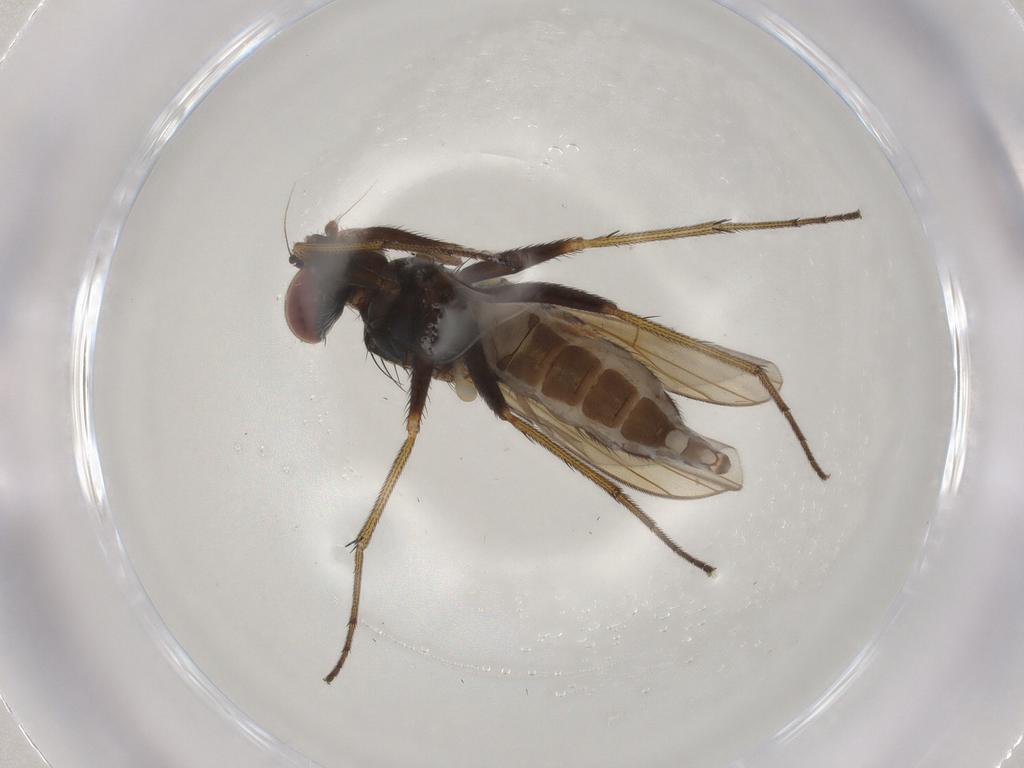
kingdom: Animalia
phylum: Arthropoda
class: Insecta
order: Diptera
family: Dolichopodidae
